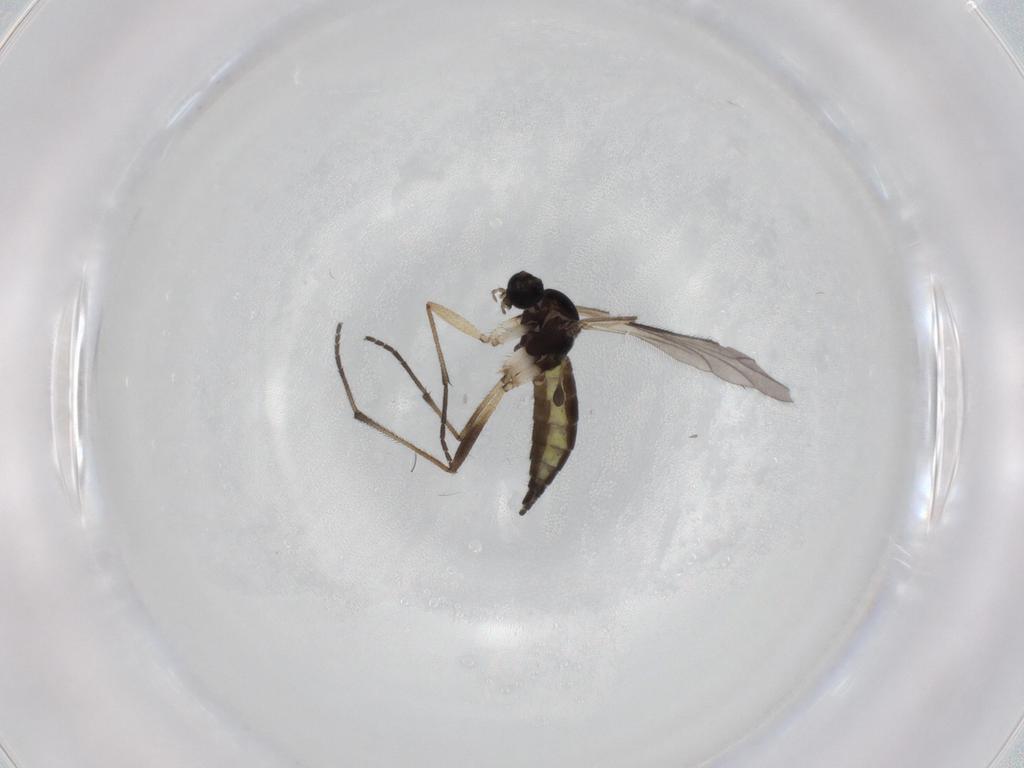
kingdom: Animalia
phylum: Arthropoda
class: Insecta
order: Diptera
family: Sciaridae
